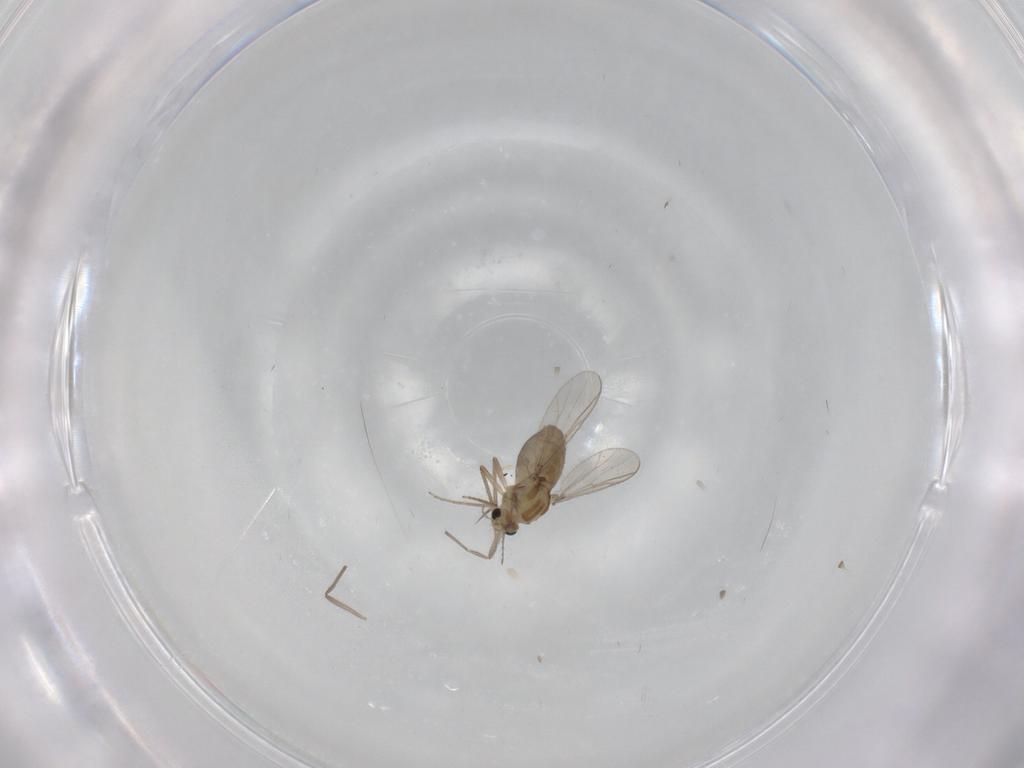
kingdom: Animalia
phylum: Arthropoda
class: Insecta
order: Diptera
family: Chironomidae
